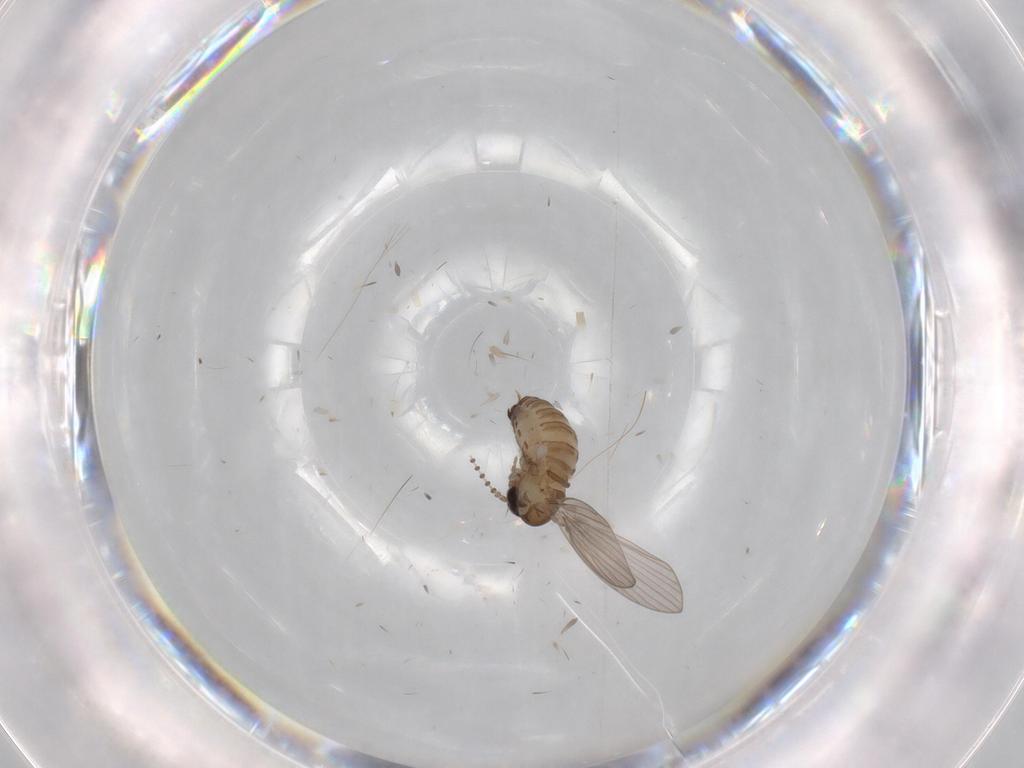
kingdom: Animalia
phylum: Arthropoda
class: Insecta
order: Diptera
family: Psychodidae
